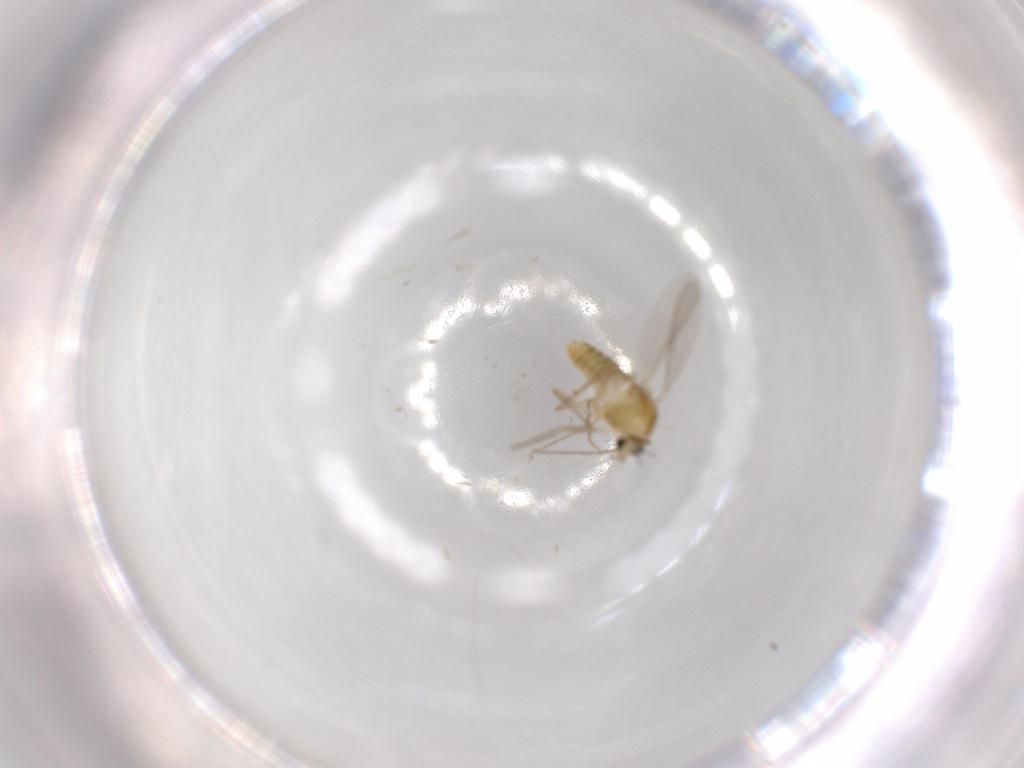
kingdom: Animalia
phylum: Arthropoda
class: Insecta
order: Diptera
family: Chironomidae
